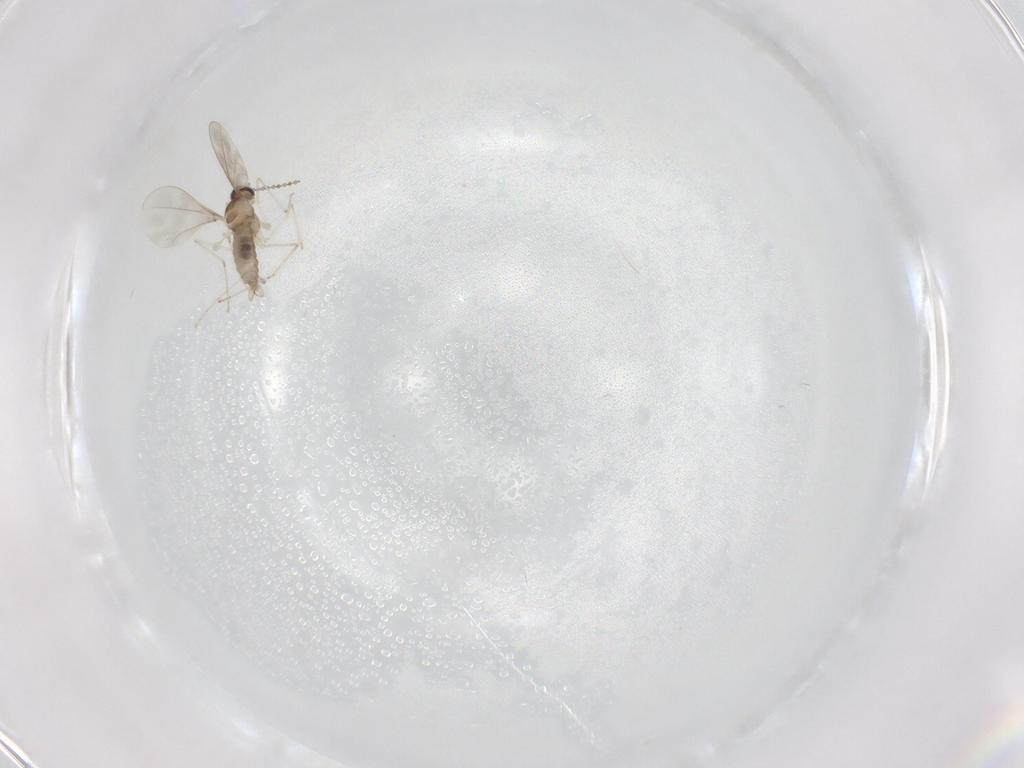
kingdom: Animalia
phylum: Arthropoda
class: Insecta
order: Diptera
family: Cecidomyiidae
